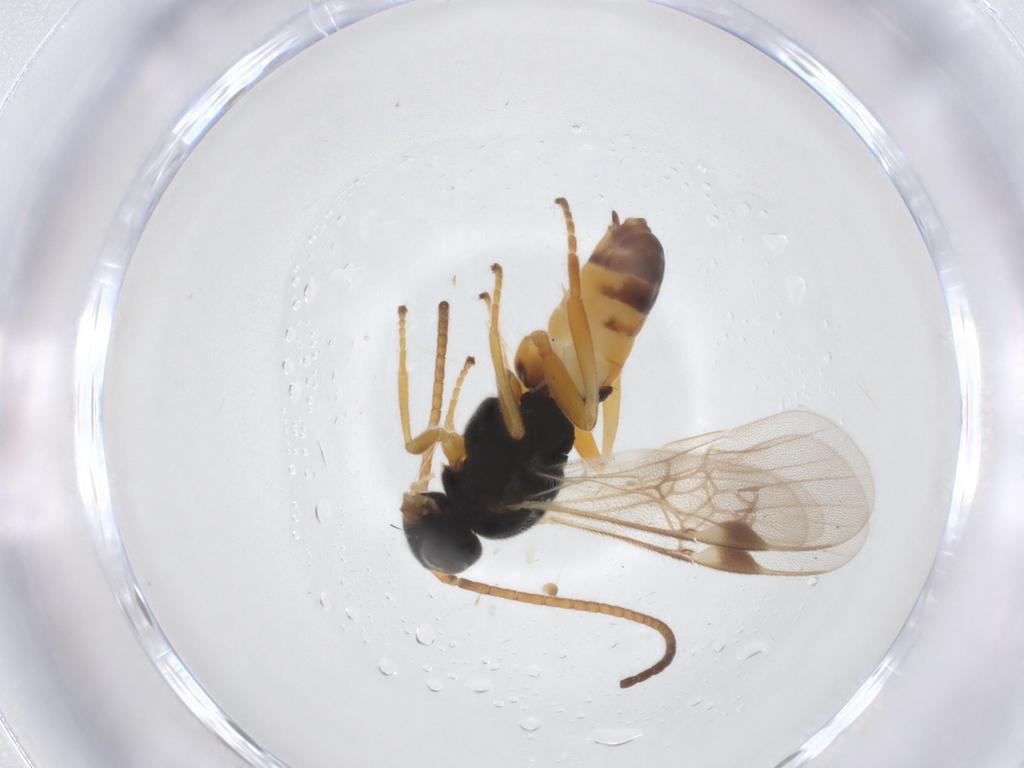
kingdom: Animalia
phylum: Arthropoda
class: Insecta
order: Hymenoptera
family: Braconidae
